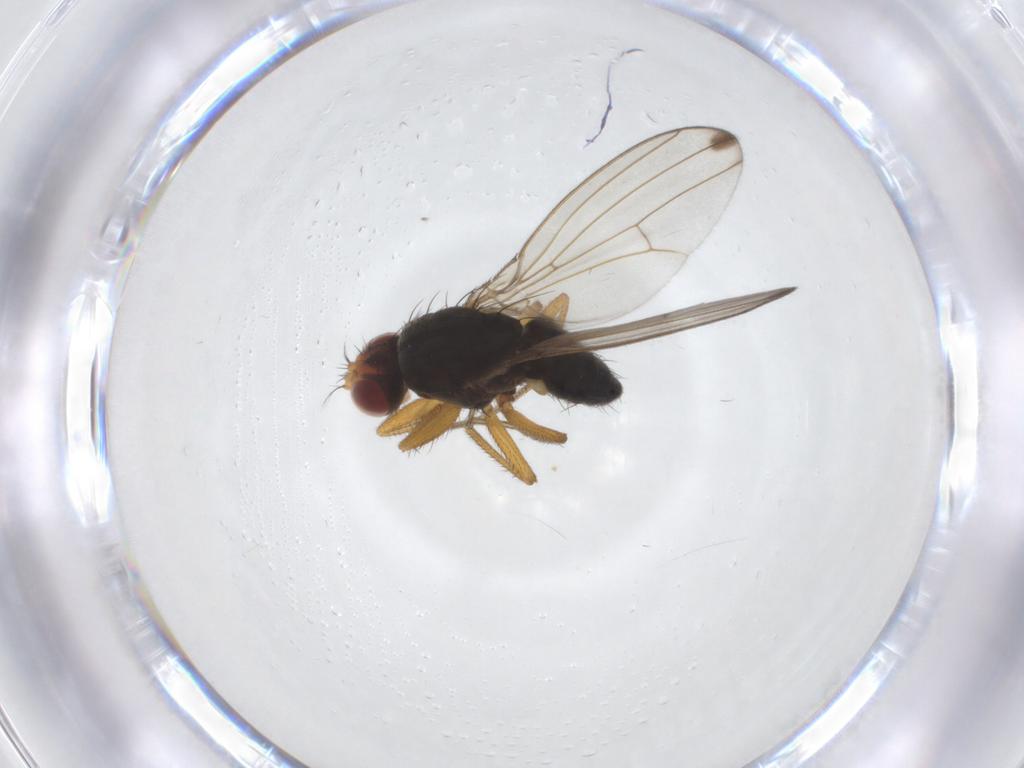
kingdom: Animalia
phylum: Arthropoda
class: Insecta
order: Diptera
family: Drosophilidae
